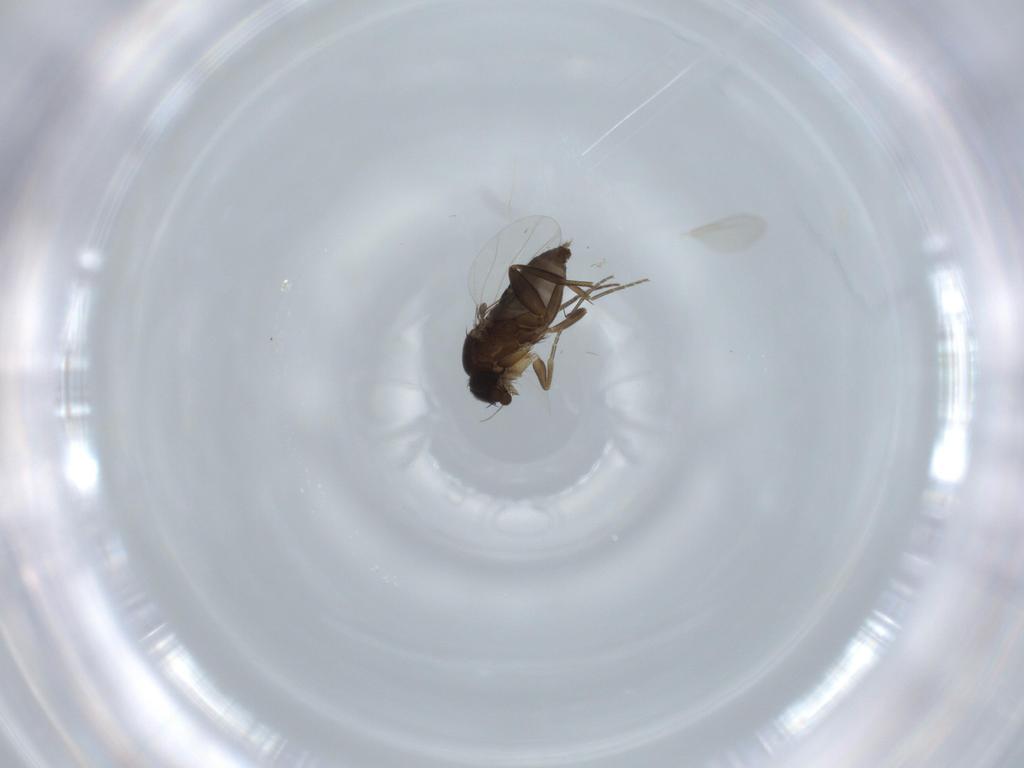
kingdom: Animalia
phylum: Arthropoda
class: Insecta
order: Diptera
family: Phoridae
